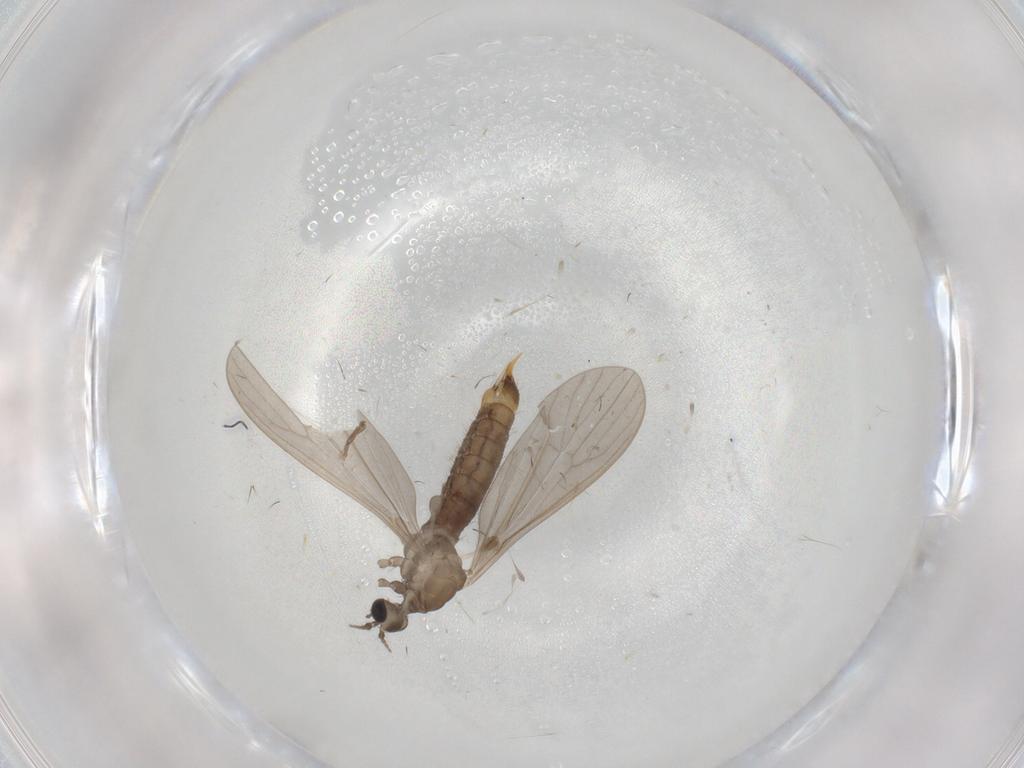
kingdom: Animalia
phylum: Arthropoda
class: Insecta
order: Diptera
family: Limoniidae
